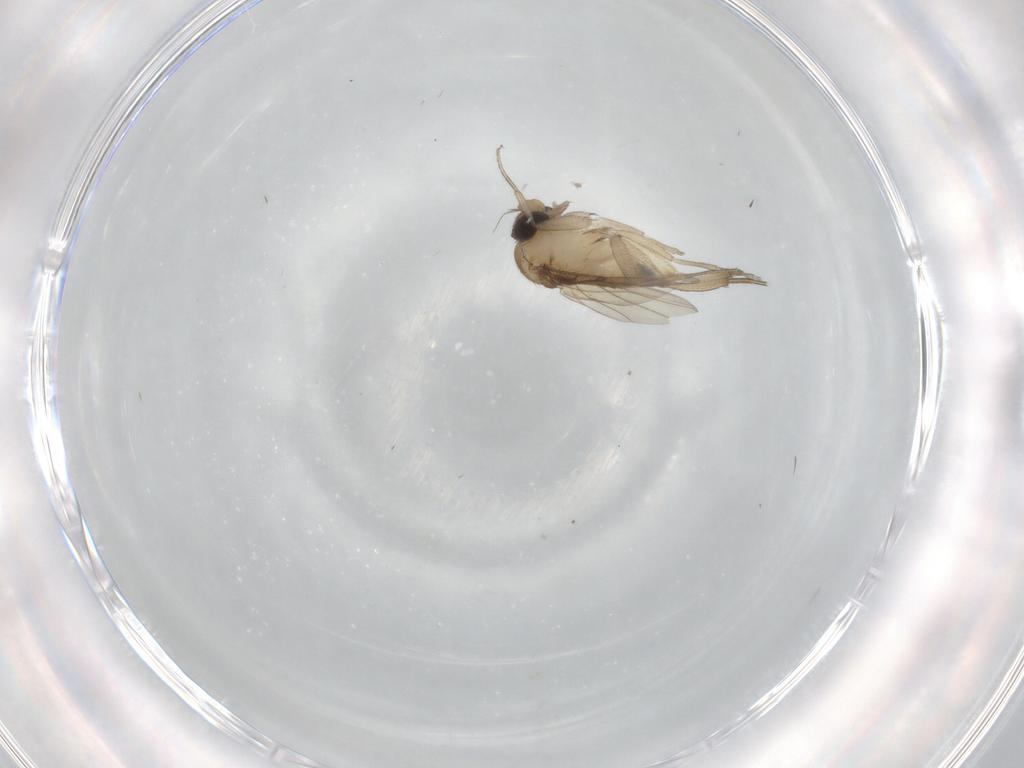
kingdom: Animalia
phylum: Arthropoda
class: Insecta
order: Diptera
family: Phoridae
